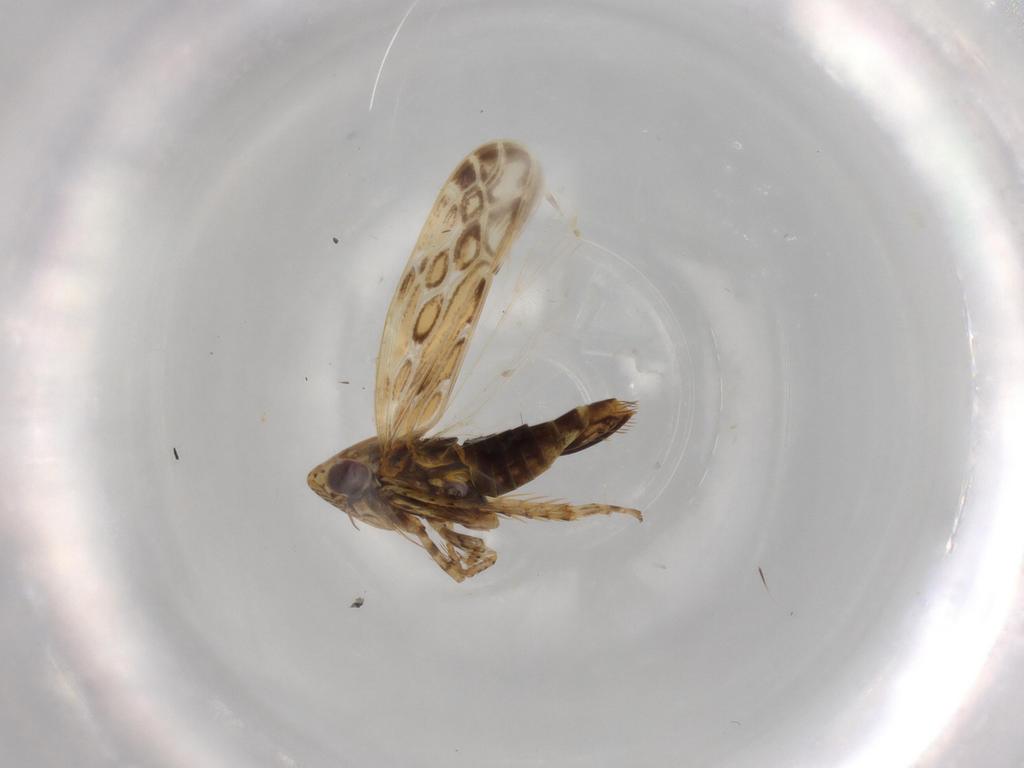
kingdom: Animalia
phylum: Arthropoda
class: Insecta
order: Hemiptera
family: Cicadellidae
